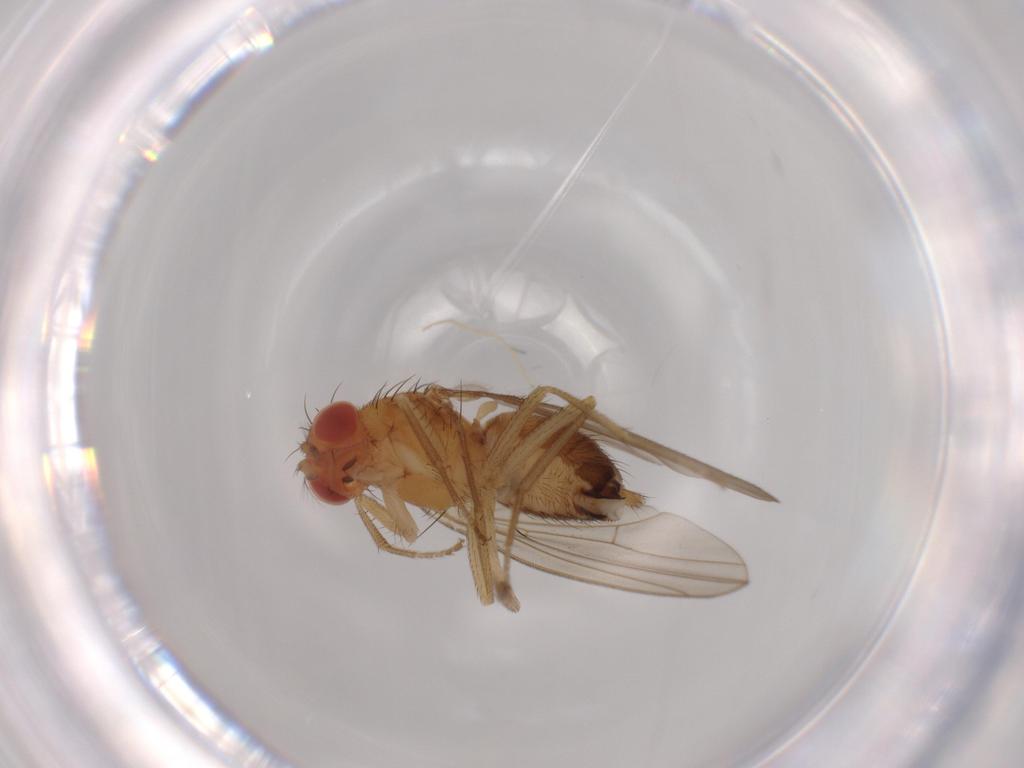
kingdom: Animalia
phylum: Arthropoda
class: Insecta
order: Diptera
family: Drosophilidae
